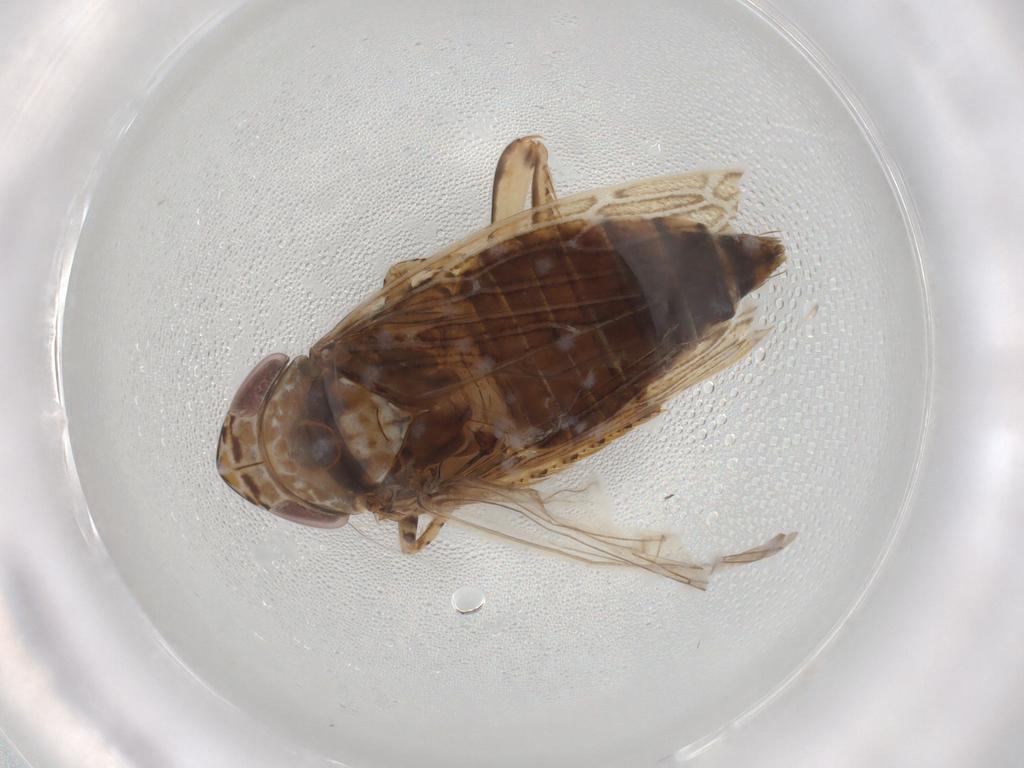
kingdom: Animalia
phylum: Arthropoda
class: Insecta
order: Hemiptera
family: Cicadellidae
